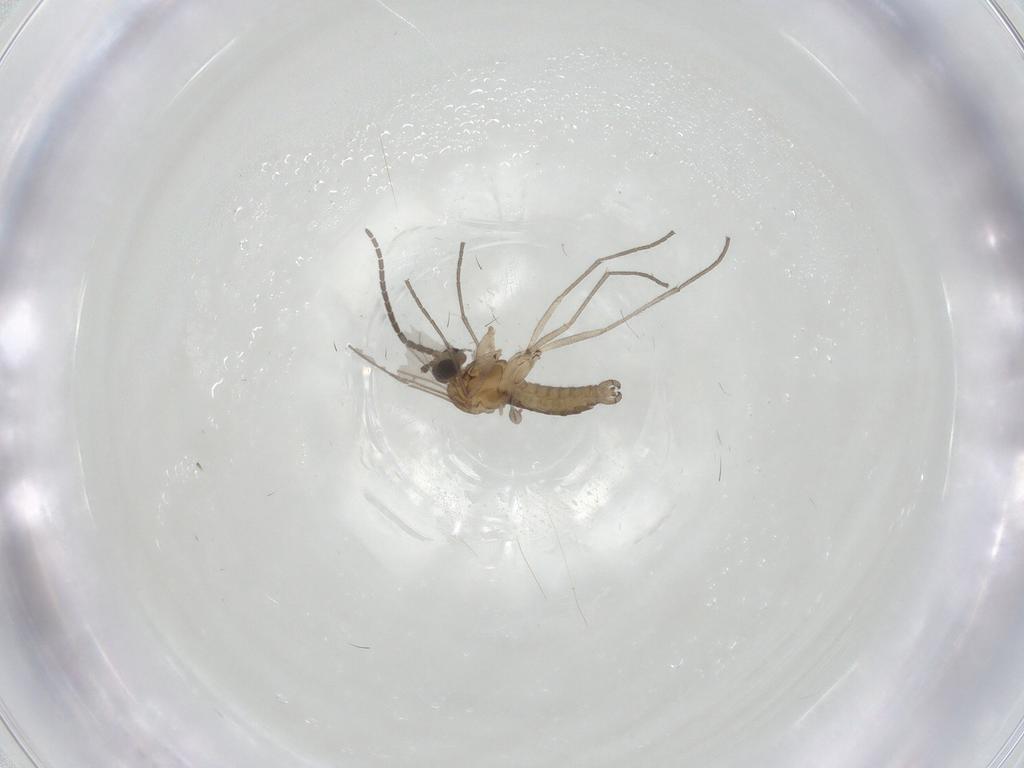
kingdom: Animalia
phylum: Arthropoda
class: Insecta
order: Diptera
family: Sciaridae
